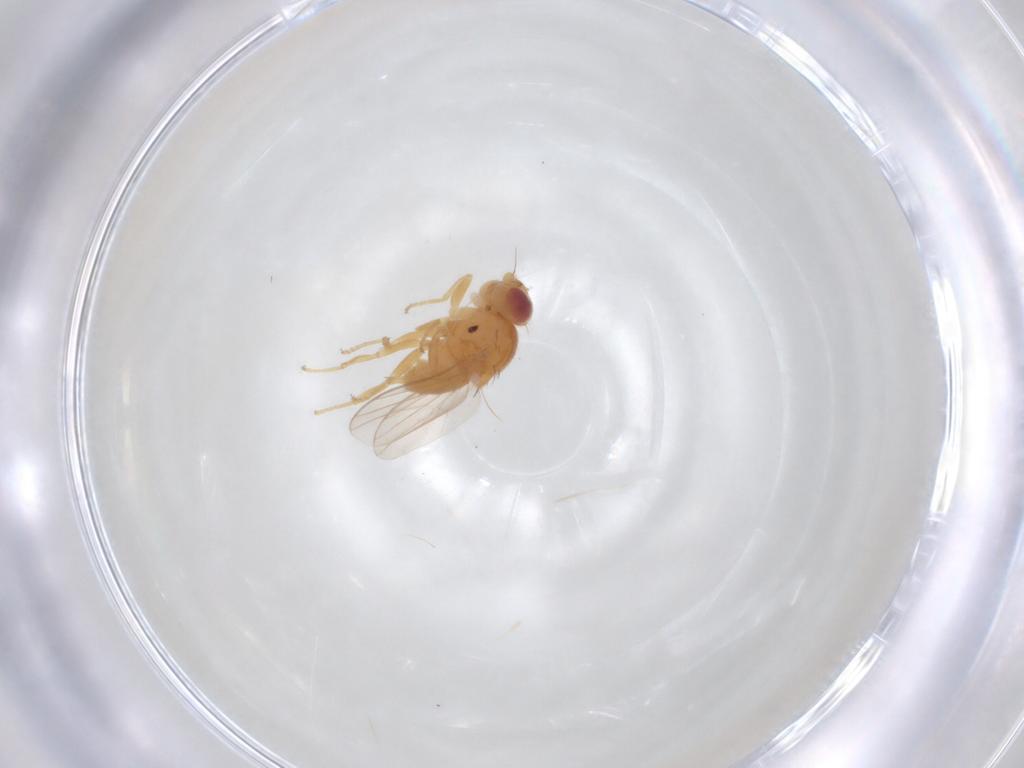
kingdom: Animalia
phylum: Arthropoda
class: Insecta
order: Diptera
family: Chloropidae
